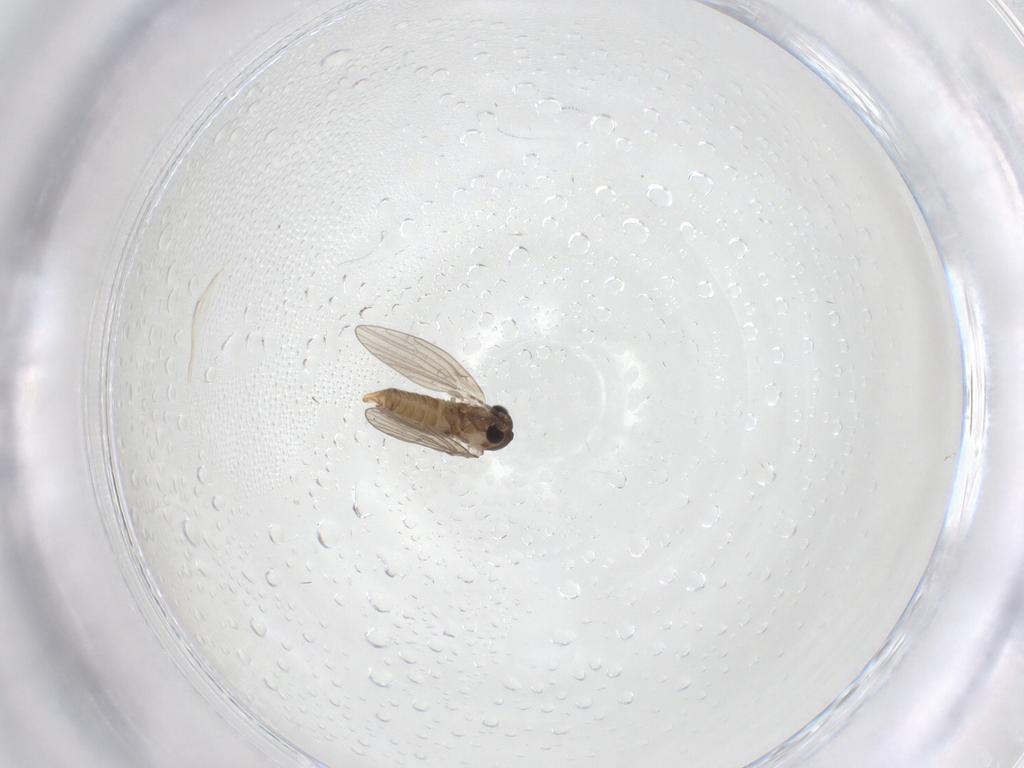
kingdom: Animalia
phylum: Arthropoda
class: Insecta
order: Diptera
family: Psychodidae
